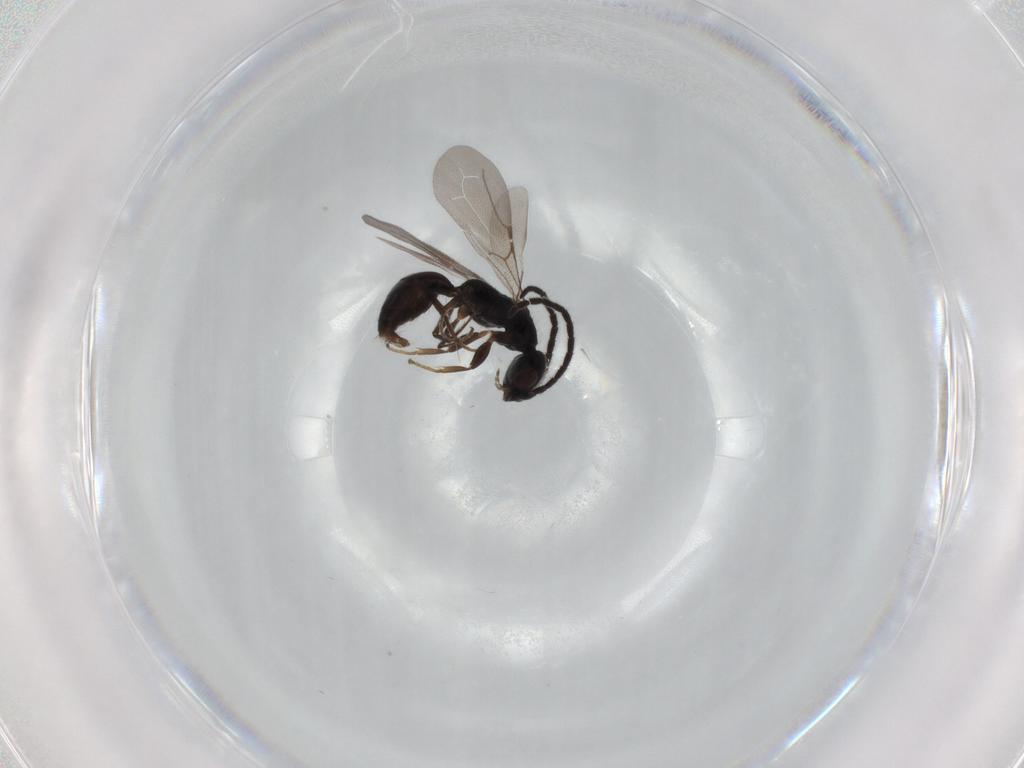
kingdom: Animalia
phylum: Arthropoda
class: Insecta
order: Hymenoptera
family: Bethylidae
